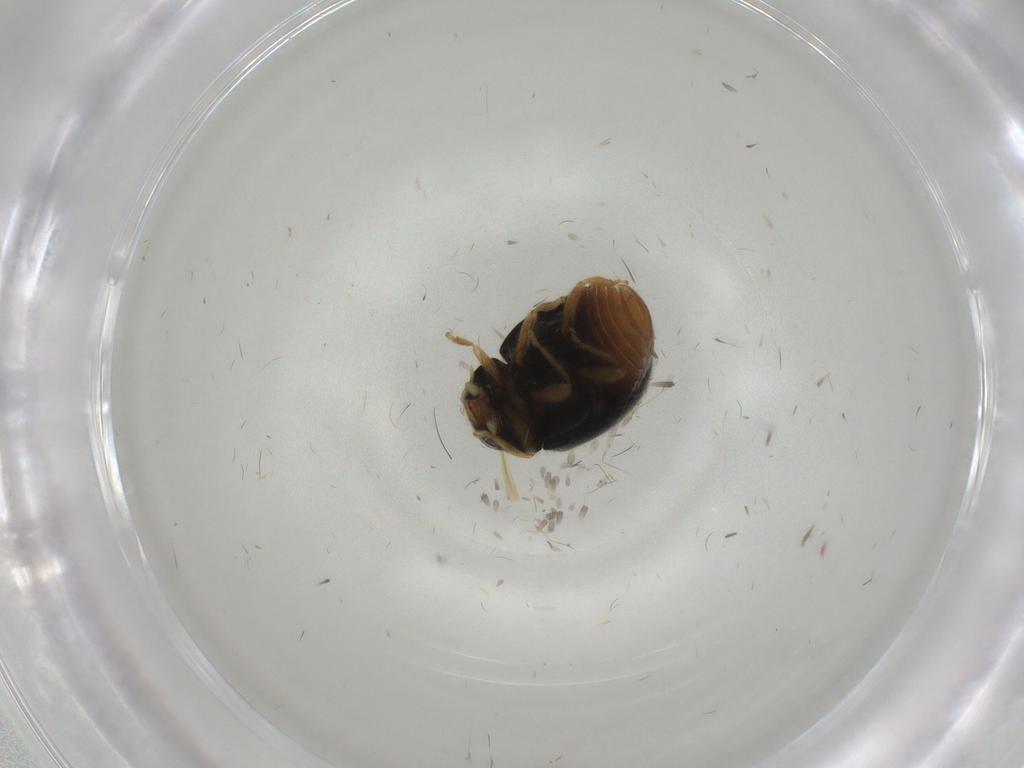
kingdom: Animalia
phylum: Arthropoda
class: Insecta
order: Coleoptera
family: Coccinellidae
